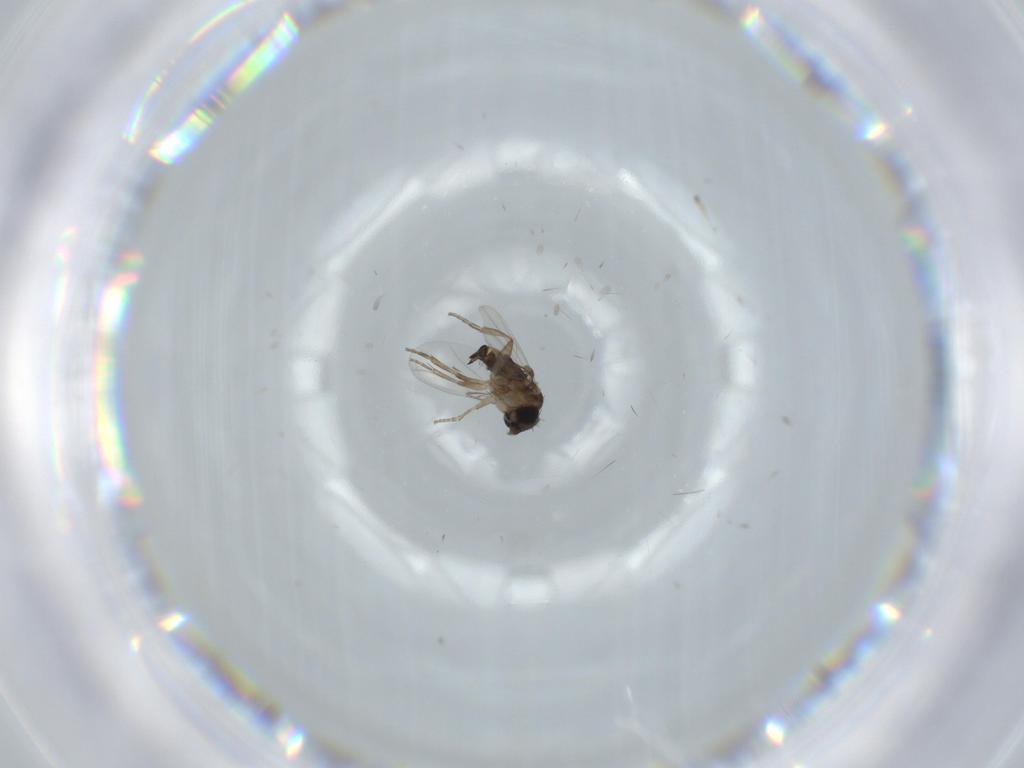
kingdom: Animalia
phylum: Arthropoda
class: Insecta
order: Diptera
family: Phoridae
